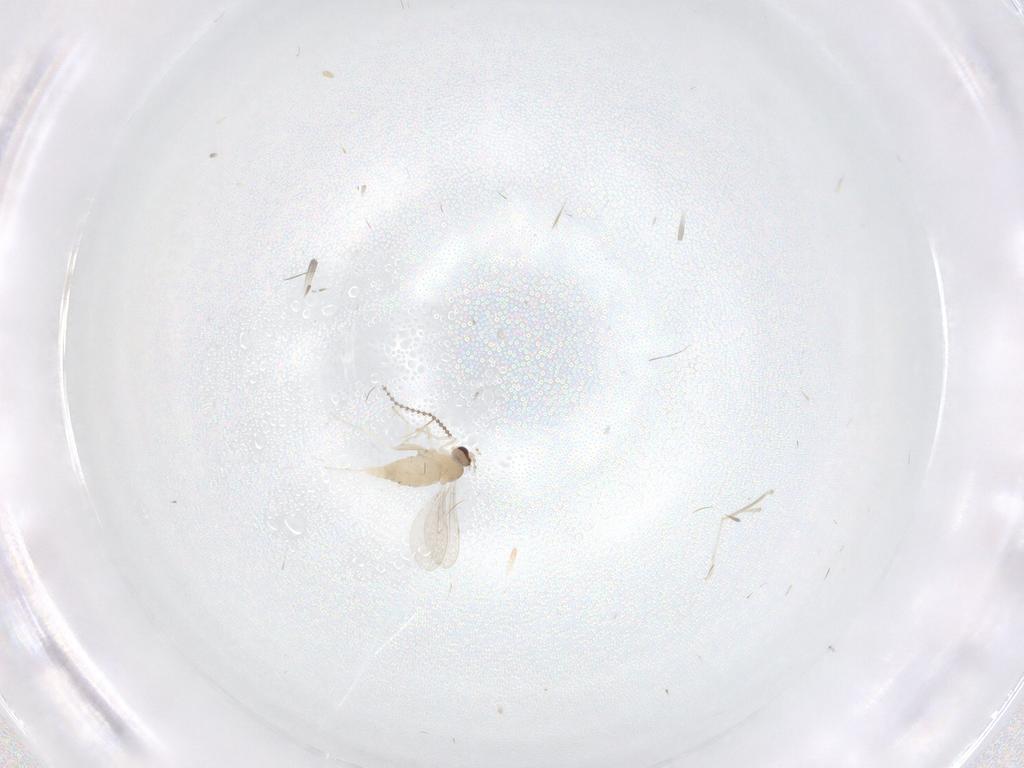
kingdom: Animalia
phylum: Arthropoda
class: Insecta
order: Diptera
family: Cecidomyiidae
